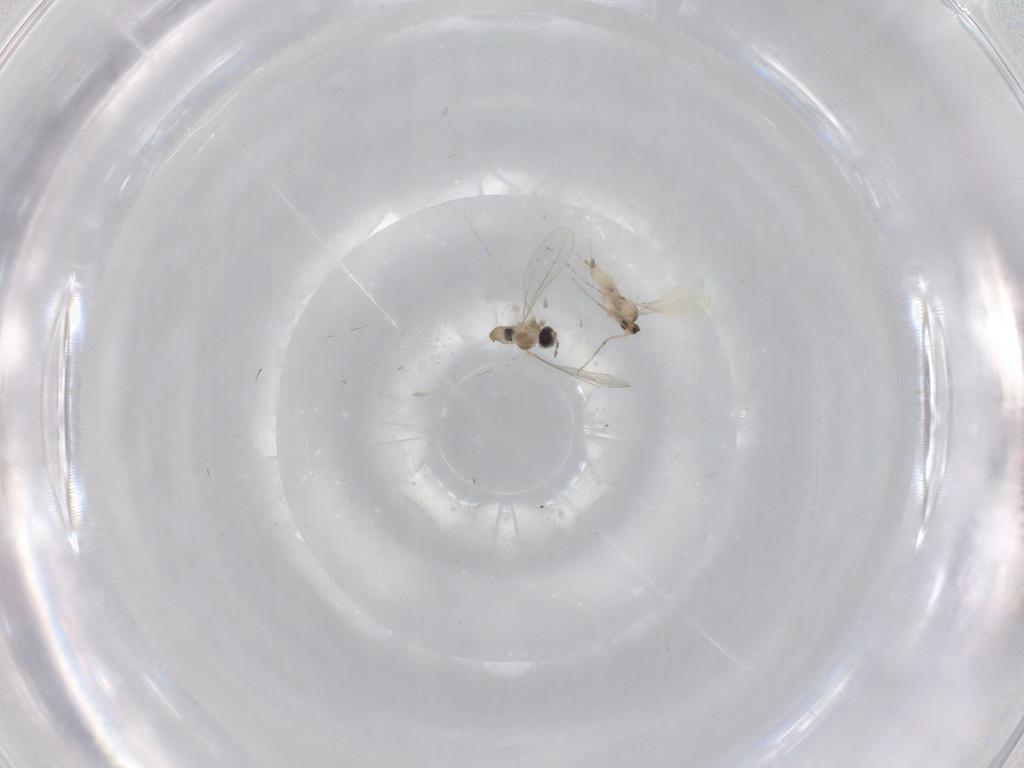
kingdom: Animalia
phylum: Arthropoda
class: Insecta
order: Diptera
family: Cecidomyiidae
